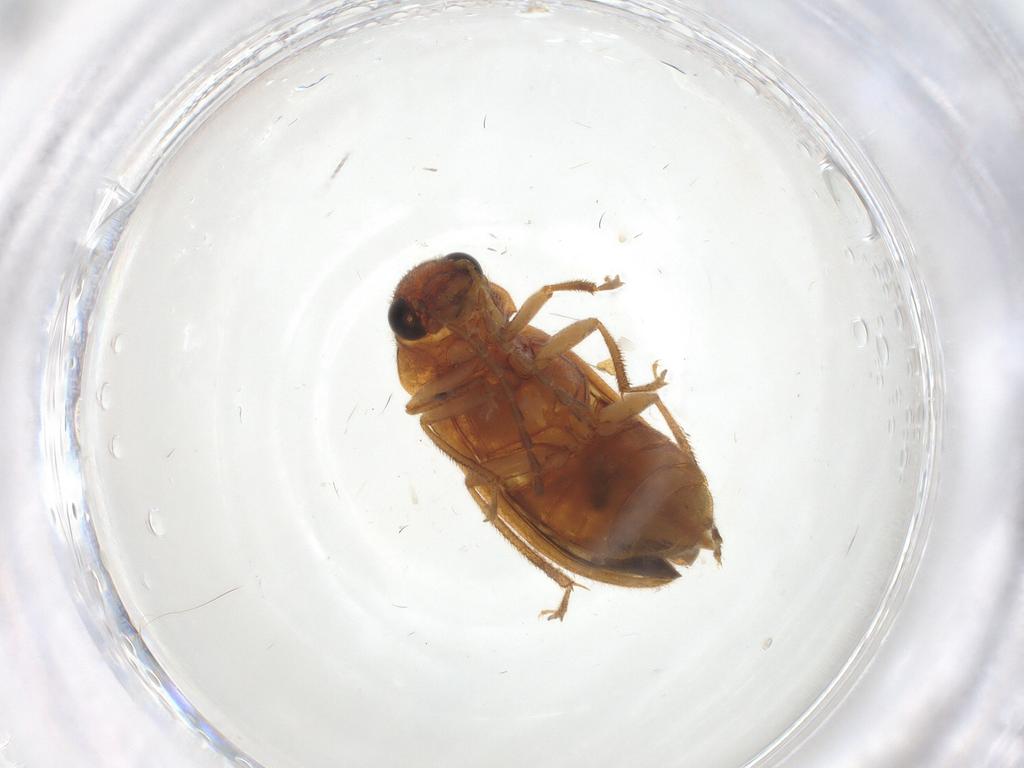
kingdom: Animalia
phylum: Arthropoda
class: Insecta
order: Coleoptera
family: Ptilodactylidae
